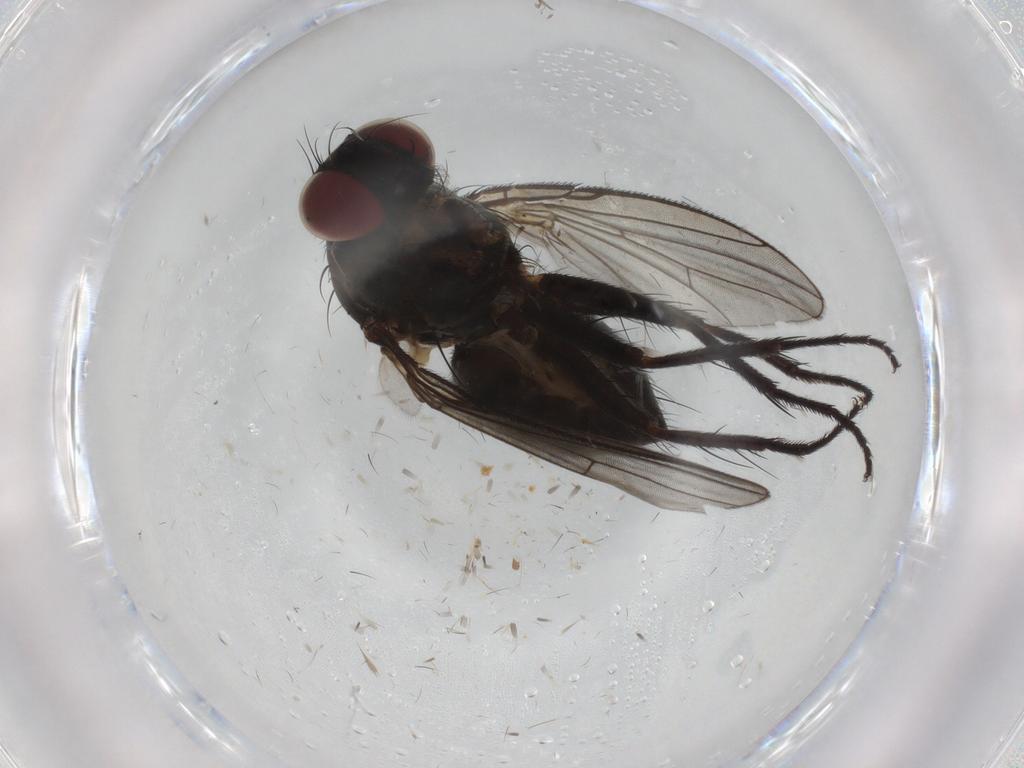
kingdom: Animalia
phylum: Arthropoda
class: Insecta
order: Diptera
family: Muscidae
